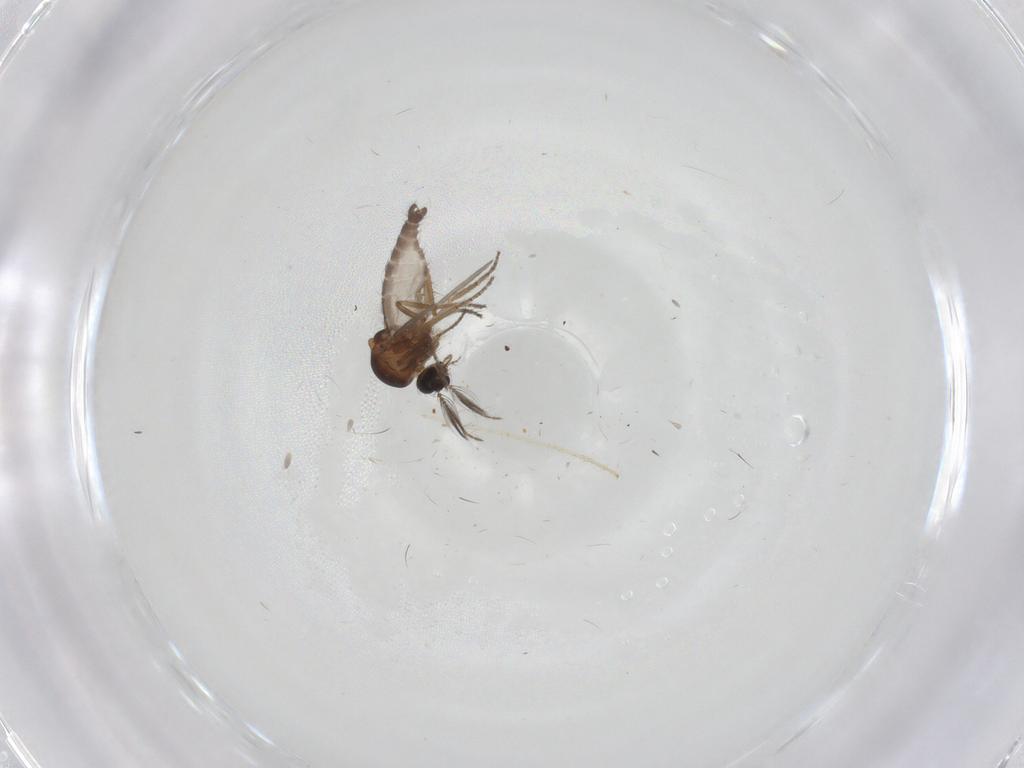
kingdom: Animalia
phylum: Arthropoda
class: Insecta
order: Diptera
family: Chironomidae
